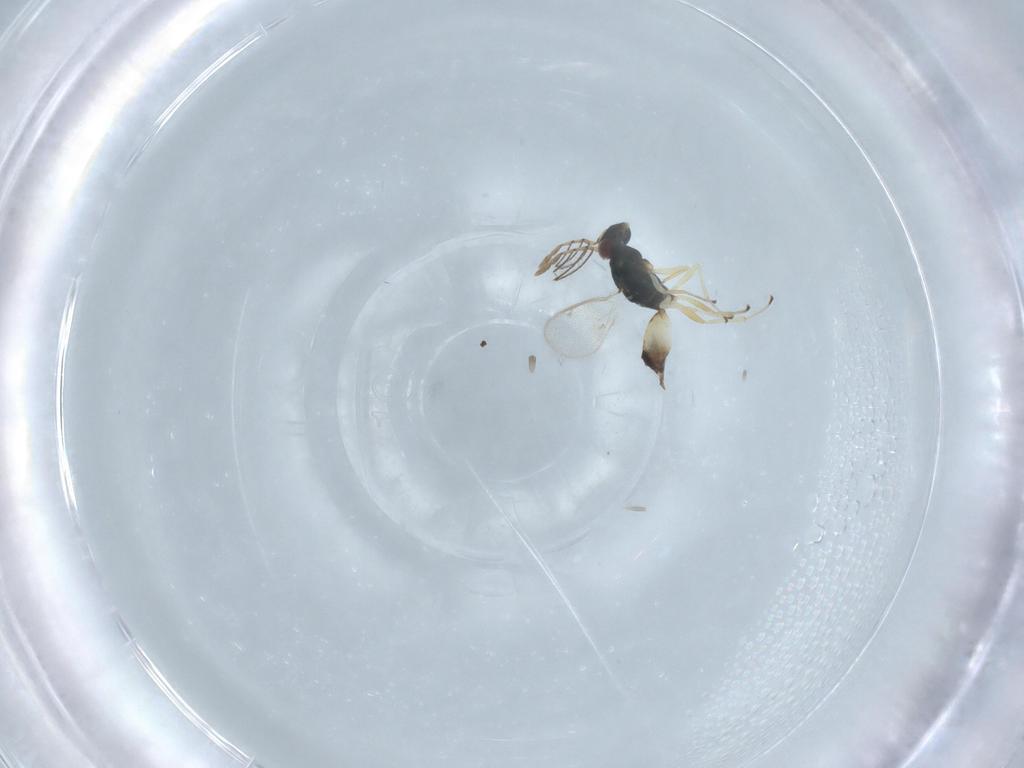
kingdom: Animalia
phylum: Arthropoda
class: Insecta
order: Hymenoptera
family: Eulophidae
